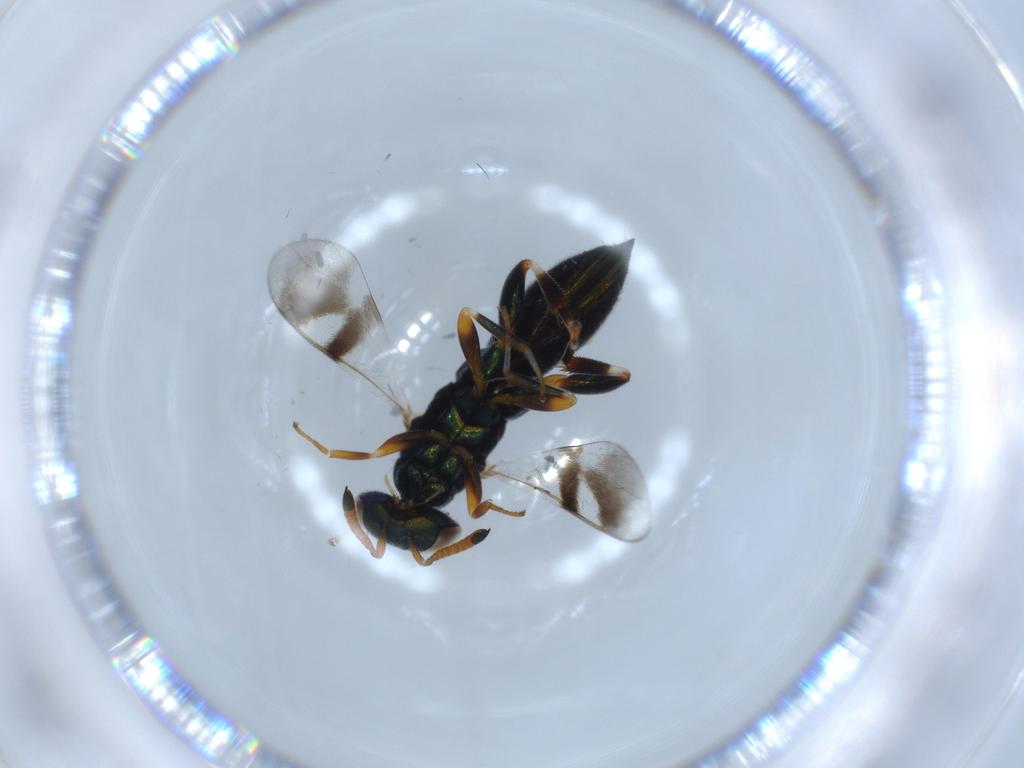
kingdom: Animalia
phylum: Arthropoda
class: Insecta
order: Hymenoptera
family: Cleonyminae
